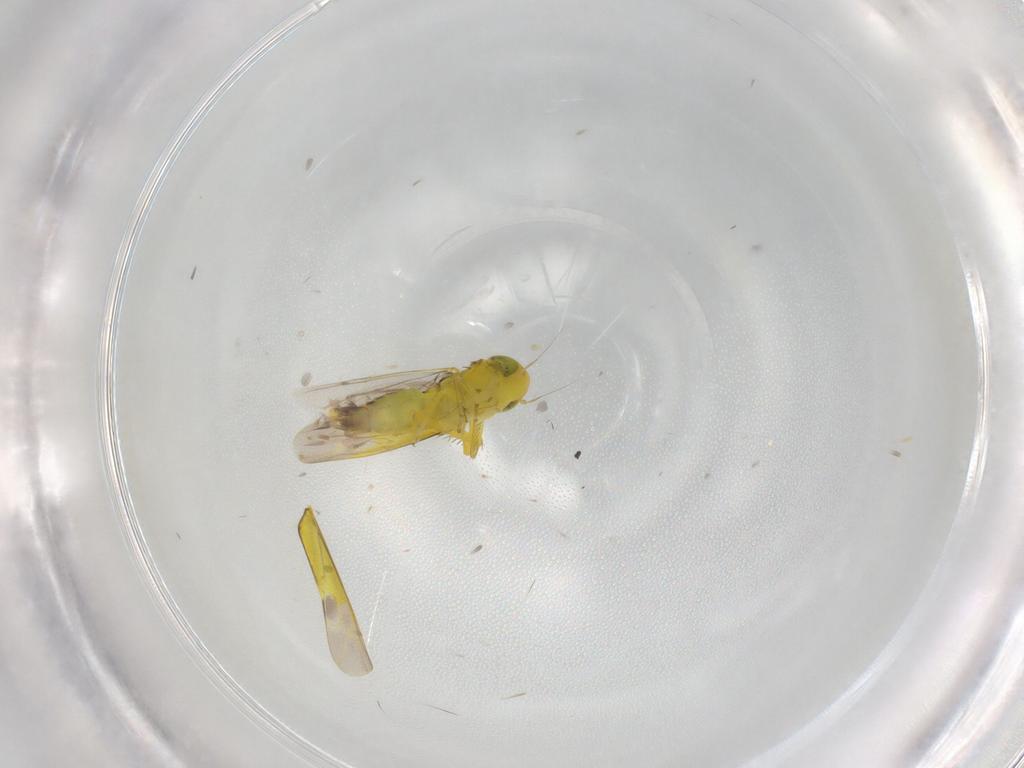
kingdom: Animalia
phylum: Arthropoda
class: Insecta
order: Hemiptera
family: Cicadellidae
